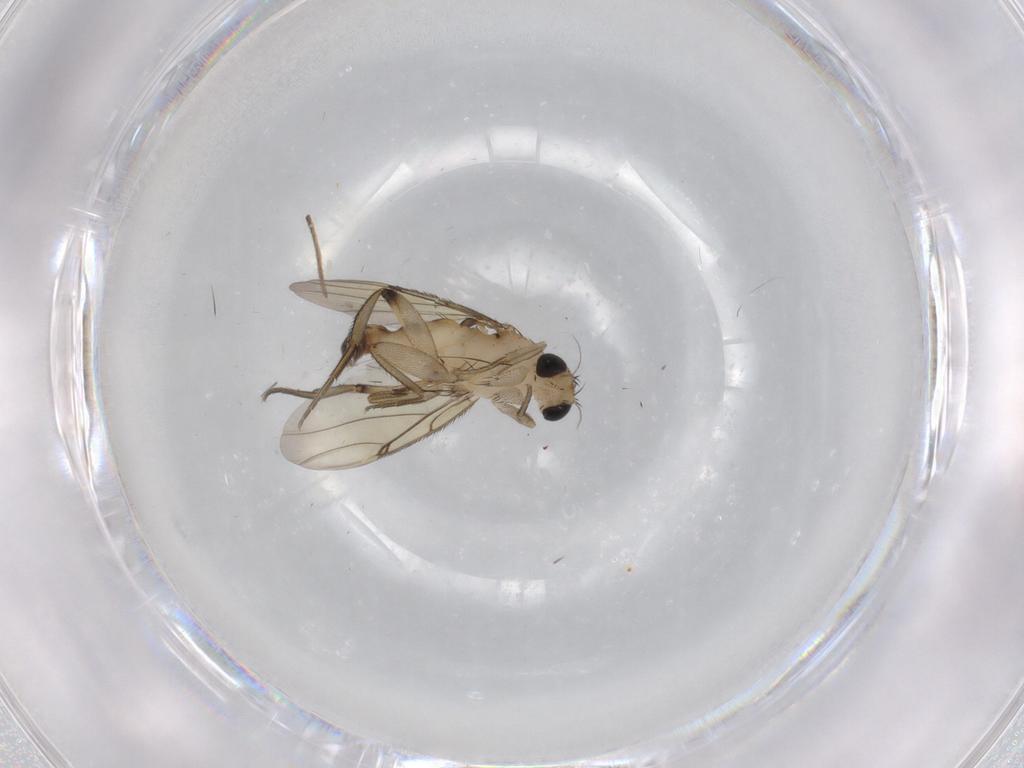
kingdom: Animalia
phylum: Arthropoda
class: Insecta
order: Diptera
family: Phoridae
